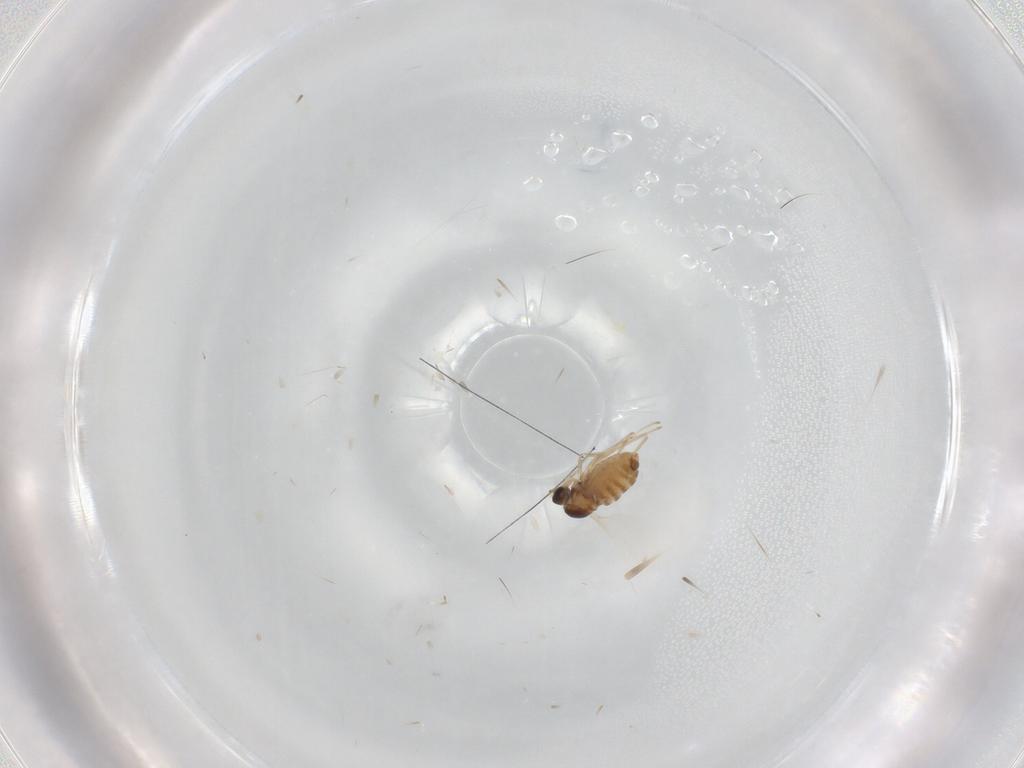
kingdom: Animalia
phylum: Arthropoda
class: Insecta
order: Diptera
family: Cecidomyiidae
